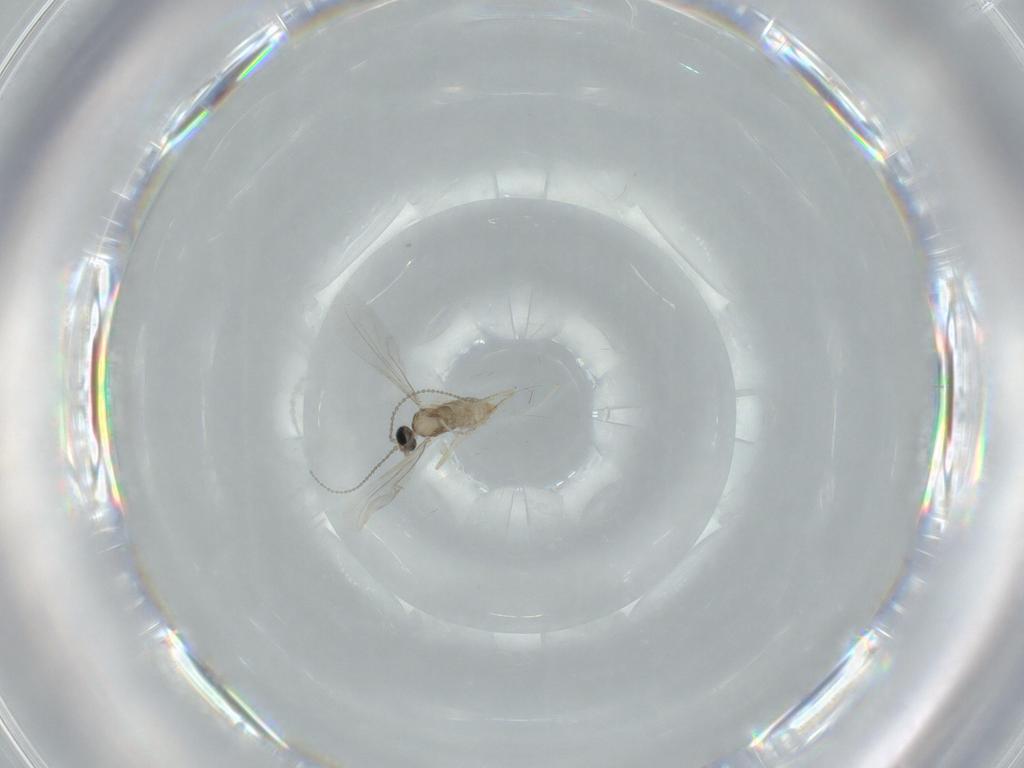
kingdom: Animalia
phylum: Arthropoda
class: Insecta
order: Diptera
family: Cecidomyiidae
